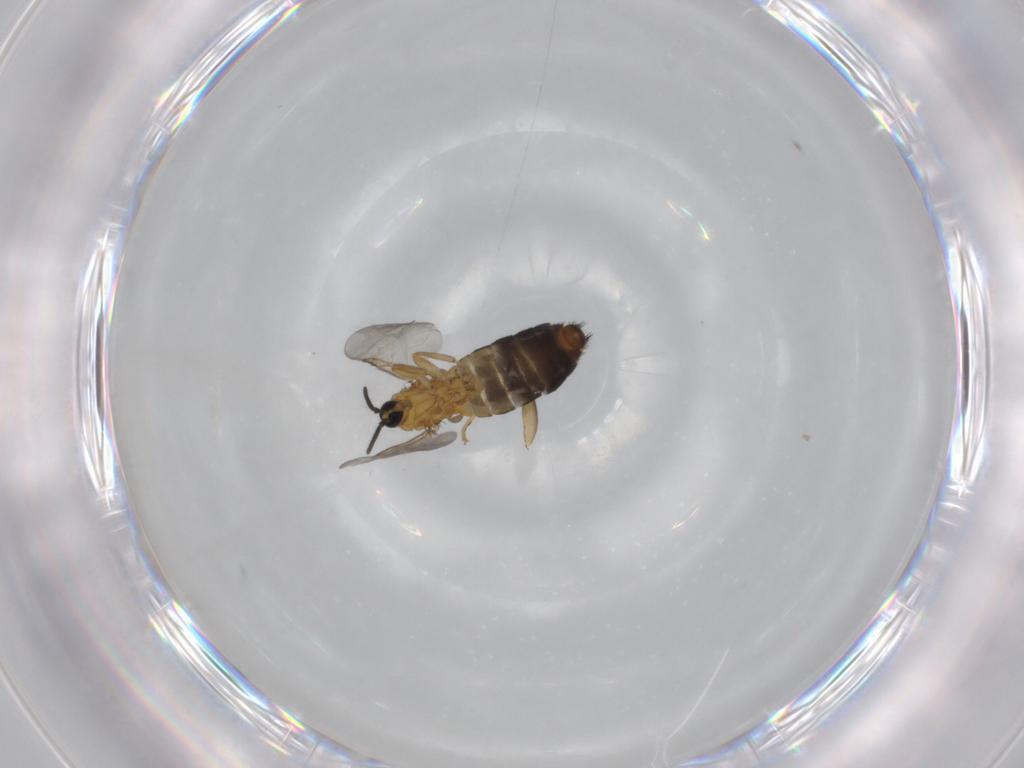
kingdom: Animalia
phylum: Arthropoda
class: Insecta
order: Diptera
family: Scatopsidae
